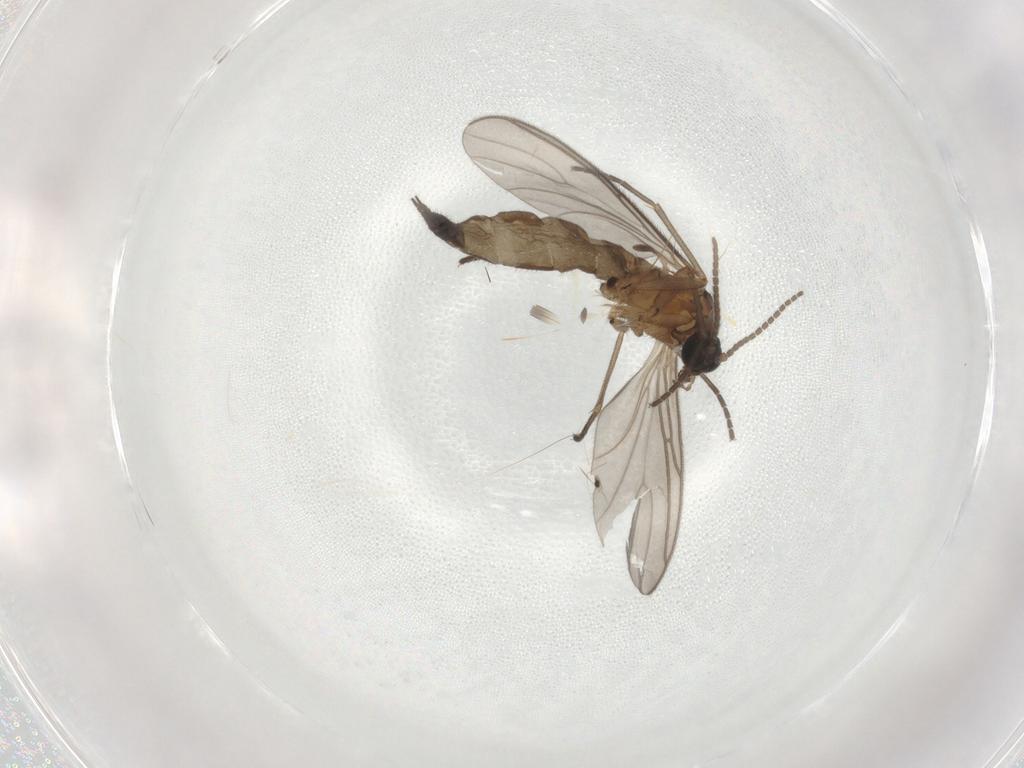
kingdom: Animalia
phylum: Arthropoda
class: Insecta
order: Diptera
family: Sciaridae
